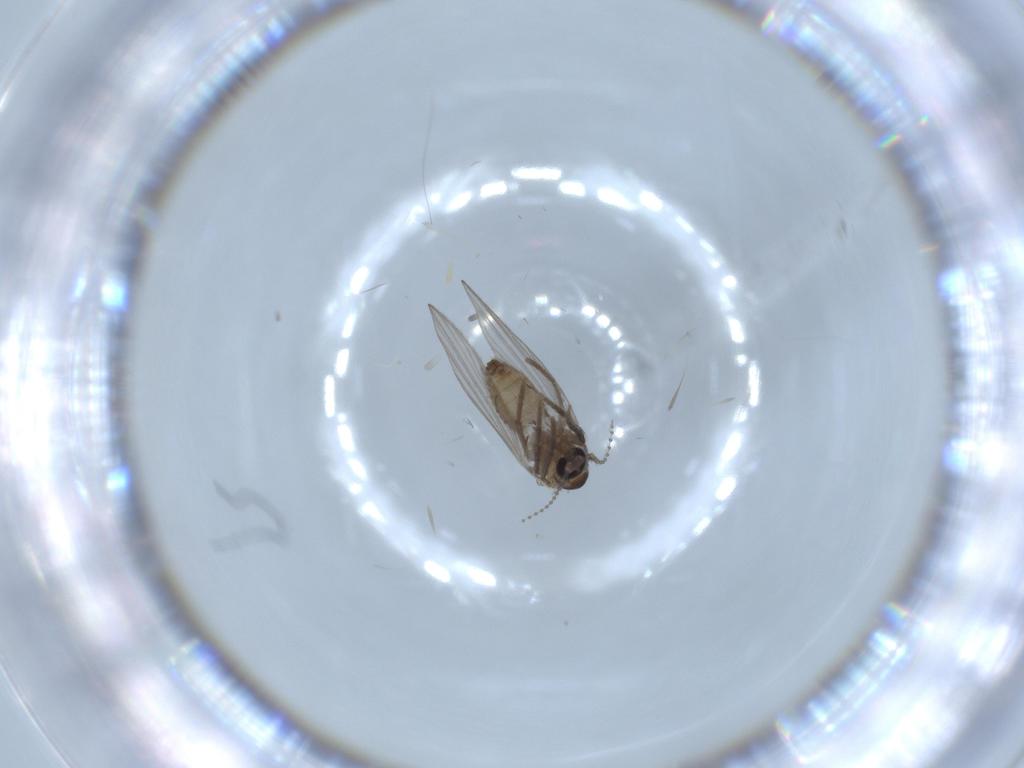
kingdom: Animalia
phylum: Arthropoda
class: Insecta
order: Diptera
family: Psychodidae
